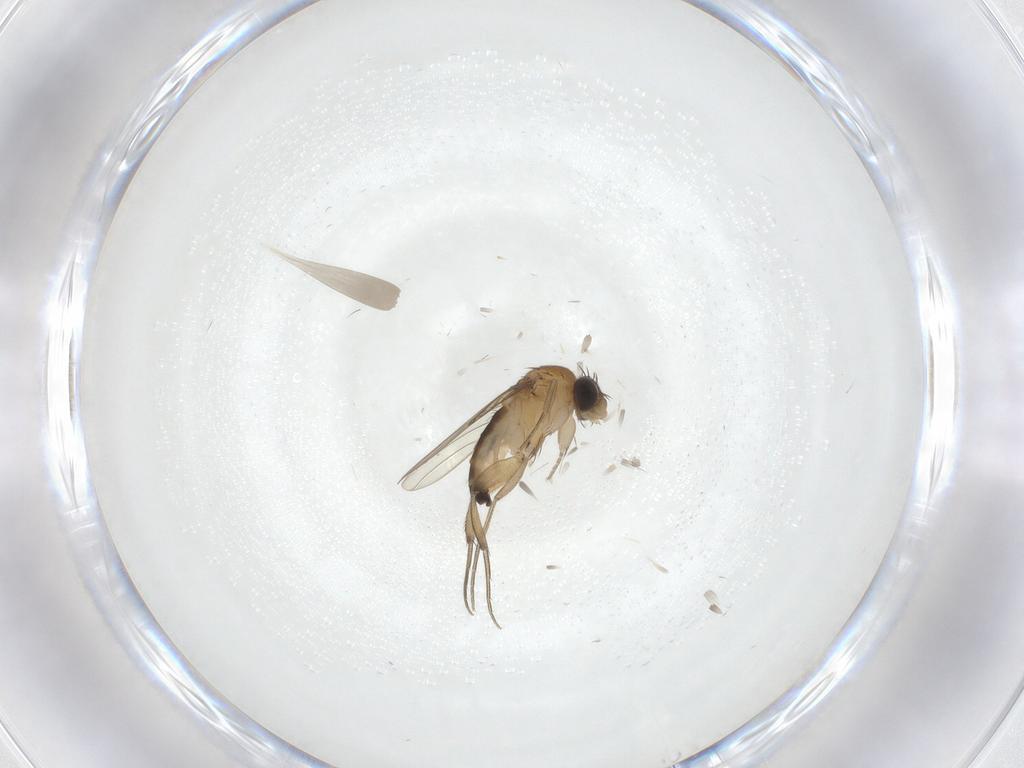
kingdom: Animalia
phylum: Arthropoda
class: Insecta
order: Diptera
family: Phoridae
